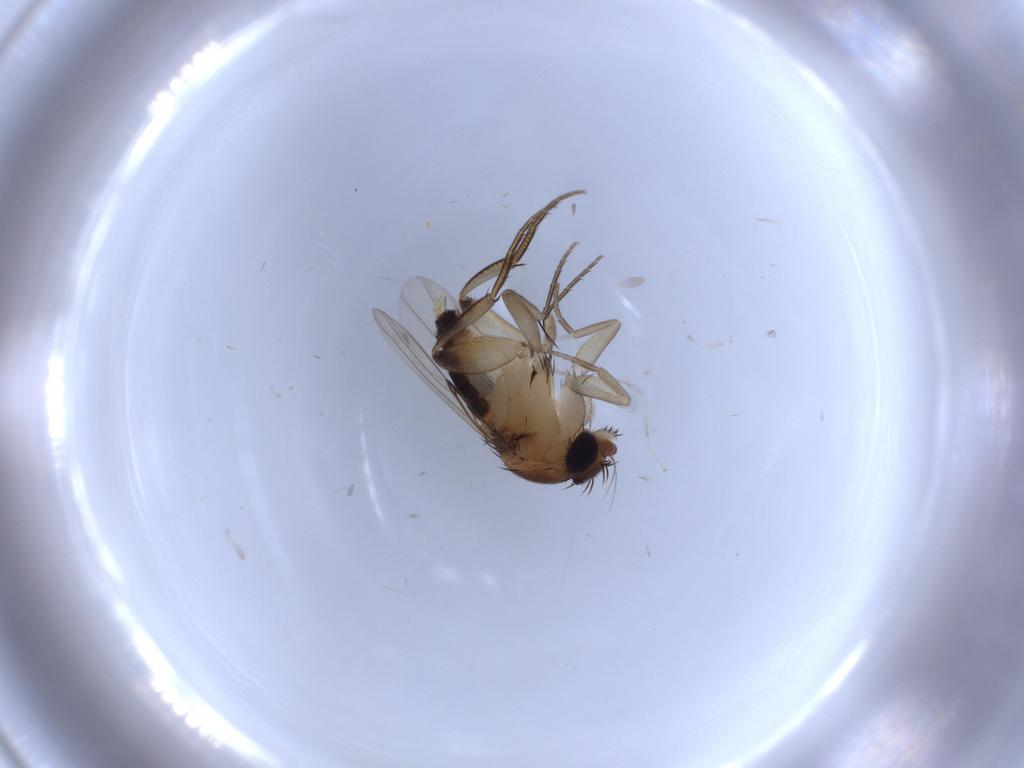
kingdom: Animalia
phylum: Arthropoda
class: Insecta
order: Diptera
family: Phoridae
